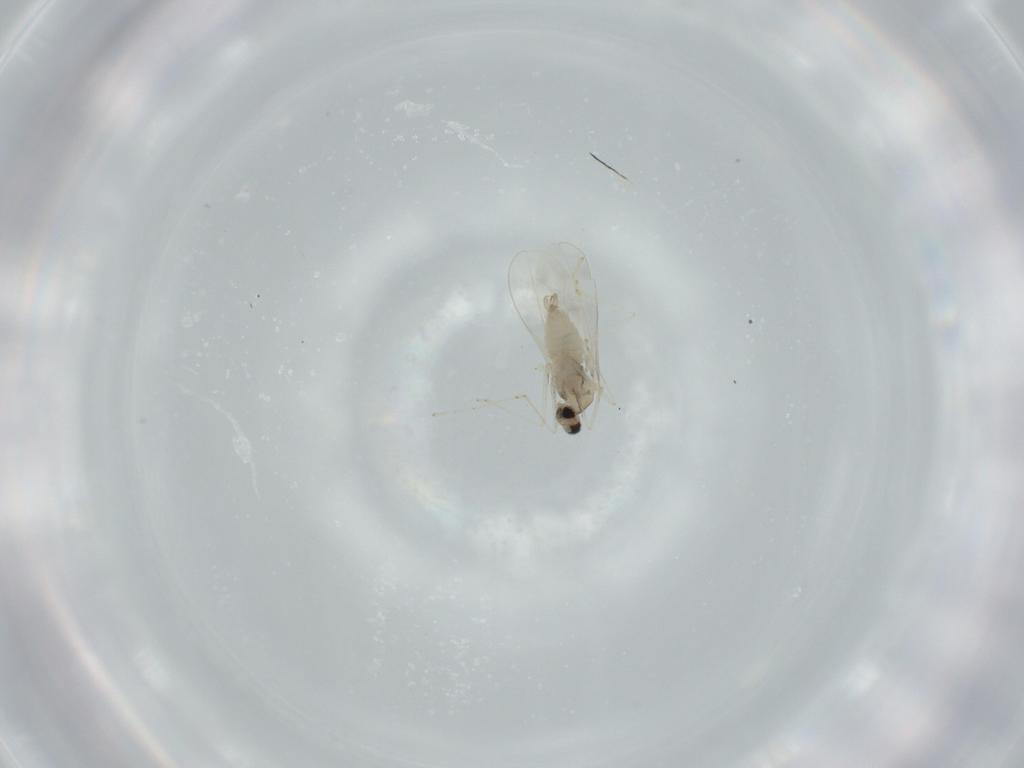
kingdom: Animalia
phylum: Arthropoda
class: Insecta
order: Diptera
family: Cecidomyiidae
